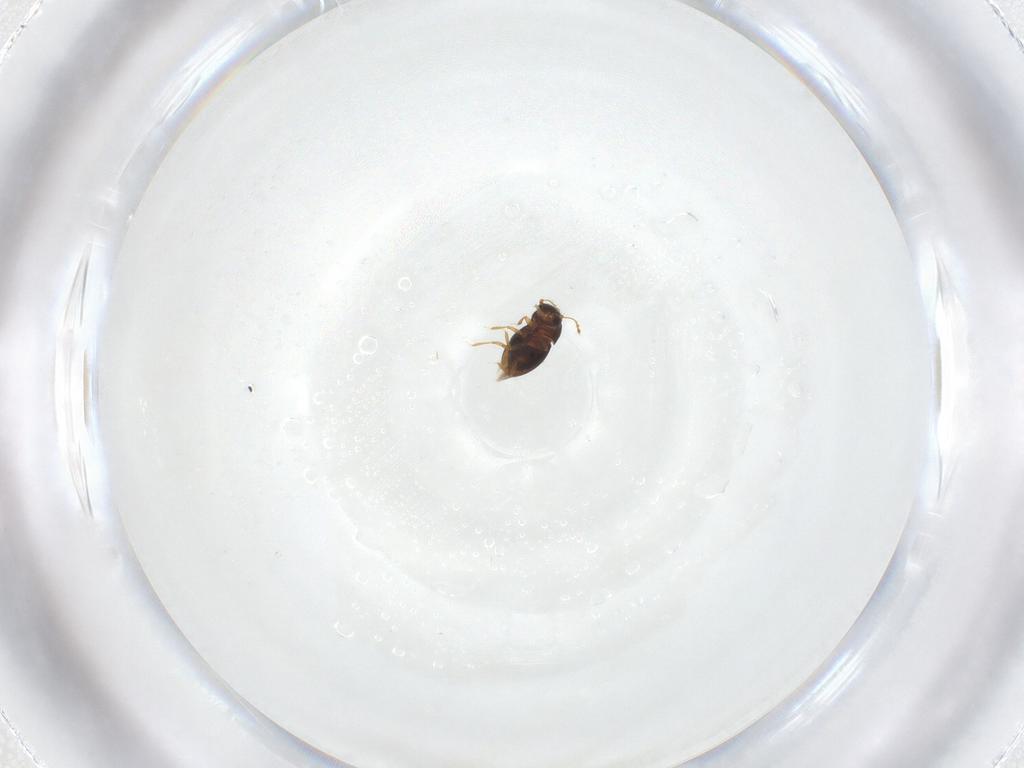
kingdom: Animalia
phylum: Arthropoda
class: Insecta
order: Coleoptera
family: Ptiliidae
